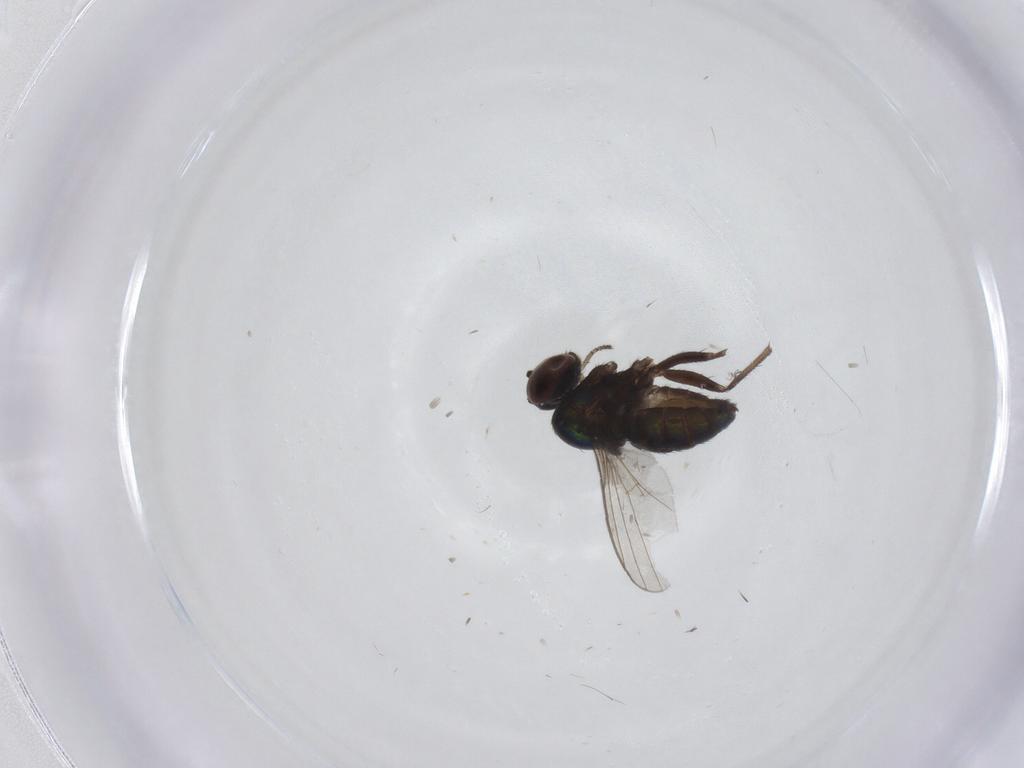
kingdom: Animalia
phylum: Arthropoda
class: Insecta
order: Diptera
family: Dolichopodidae
